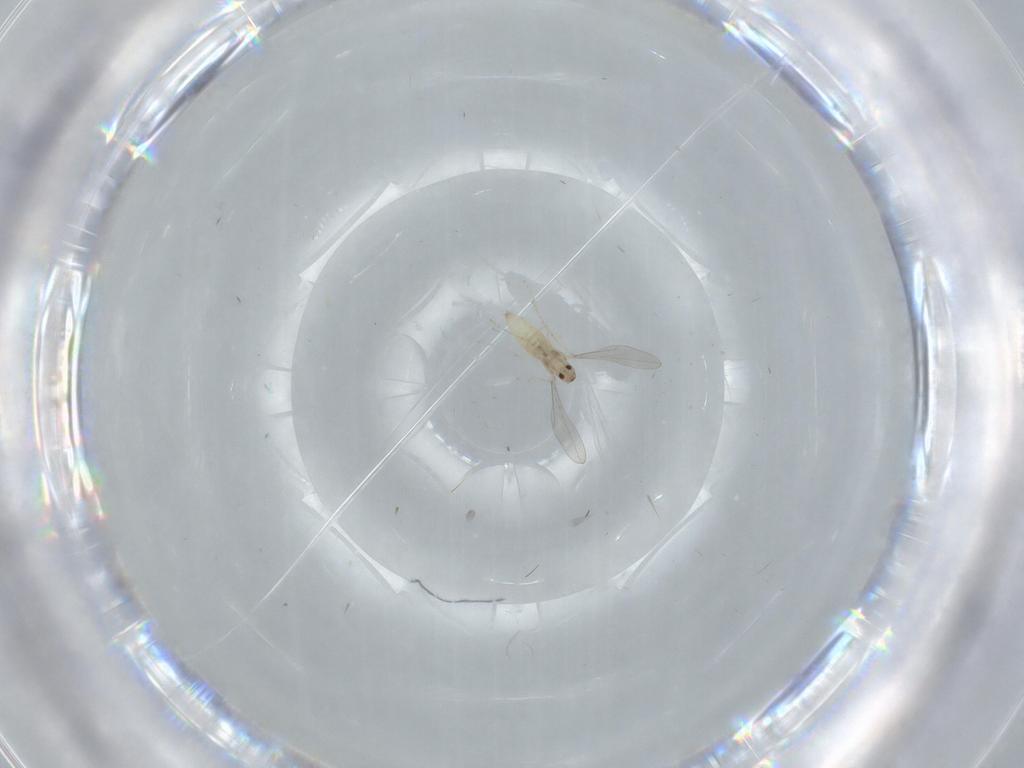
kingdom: Animalia
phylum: Arthropoda
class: Insecta
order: Diptera
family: Cecidomyiidae
